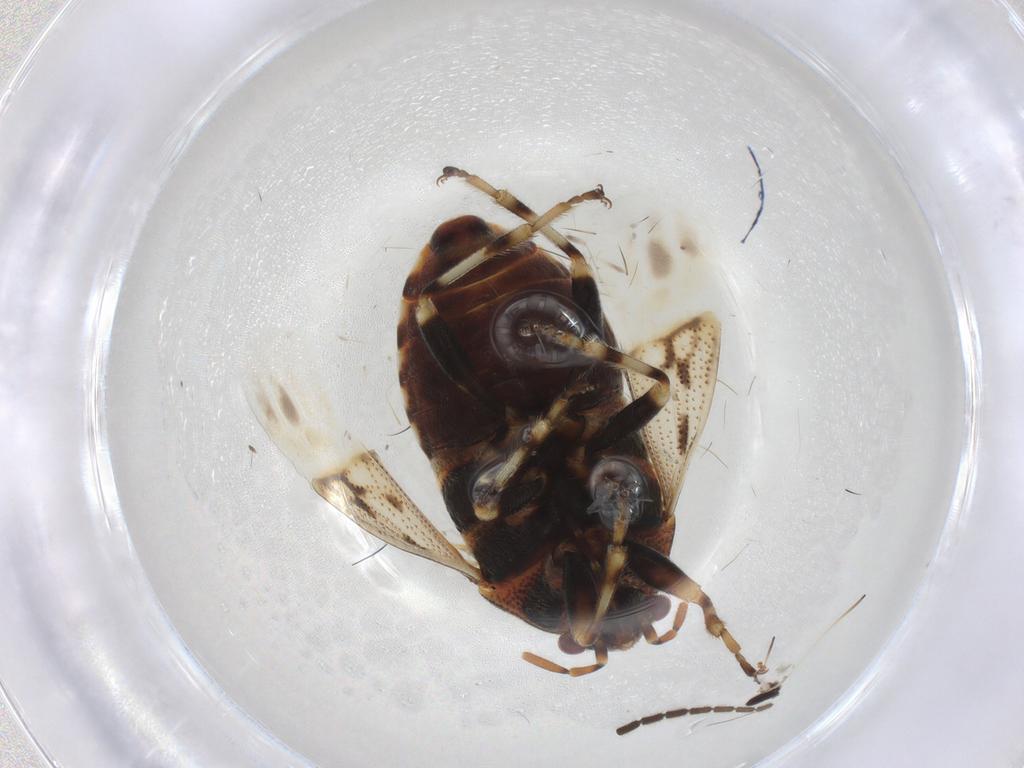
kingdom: Animalia
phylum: Arthropoda
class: Insecta
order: Hemiptera
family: Rhopalidae
